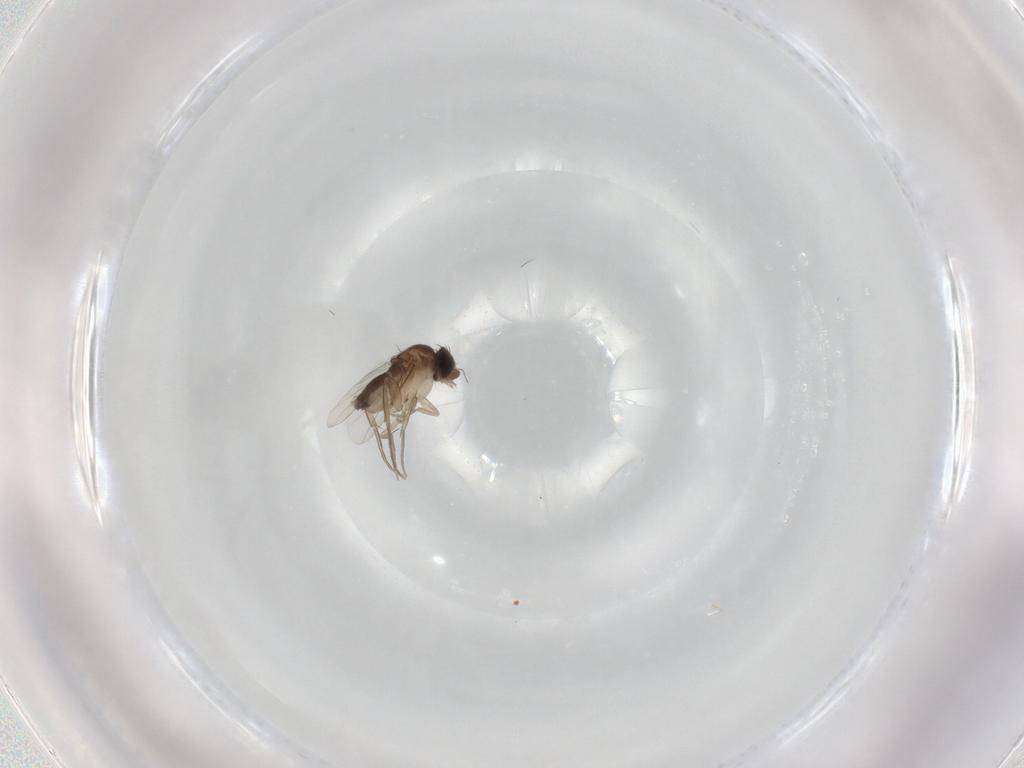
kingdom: Animalia
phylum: Arthropoda
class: Insecta
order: Diptera
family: Phoridae
